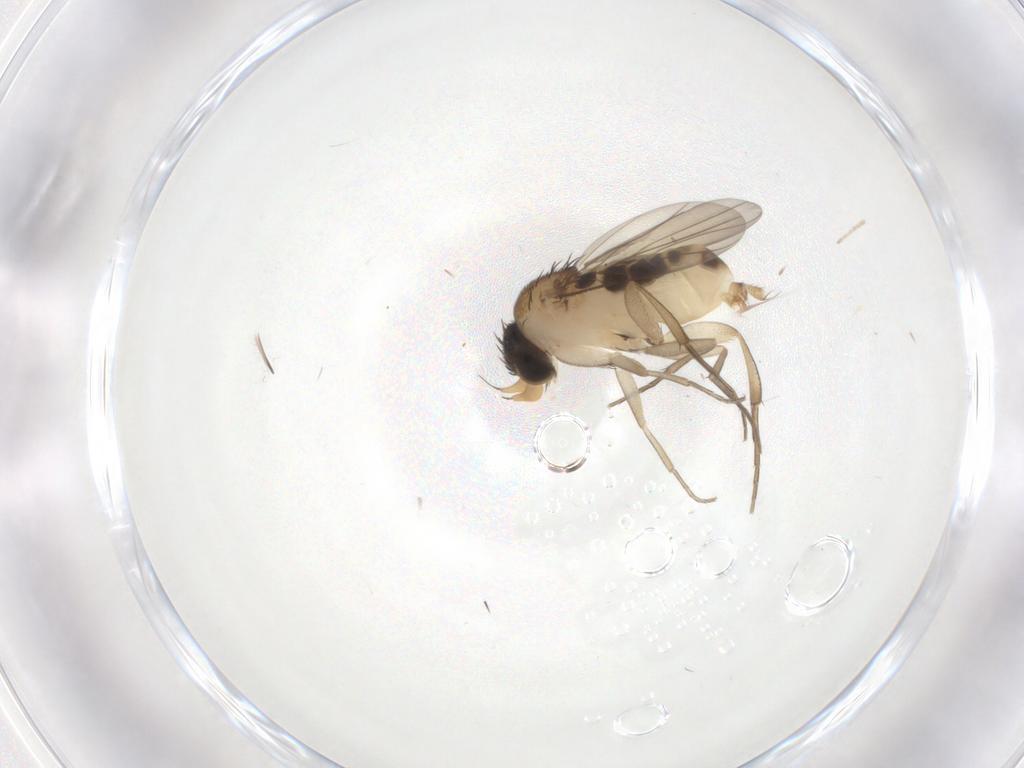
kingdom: Animalia
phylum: Arthropoda
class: Insecta
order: Diptera
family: Phoridae
